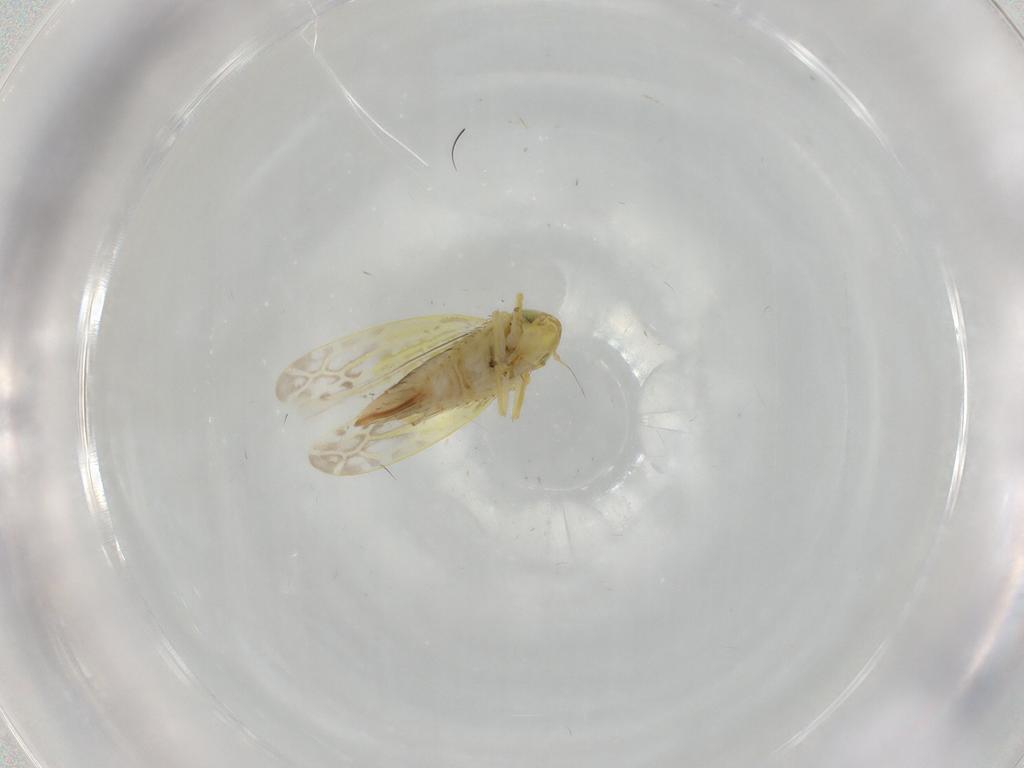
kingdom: Animalia
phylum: Arthropoda
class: Insecta
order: Hemiptera
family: Cicadellidae
